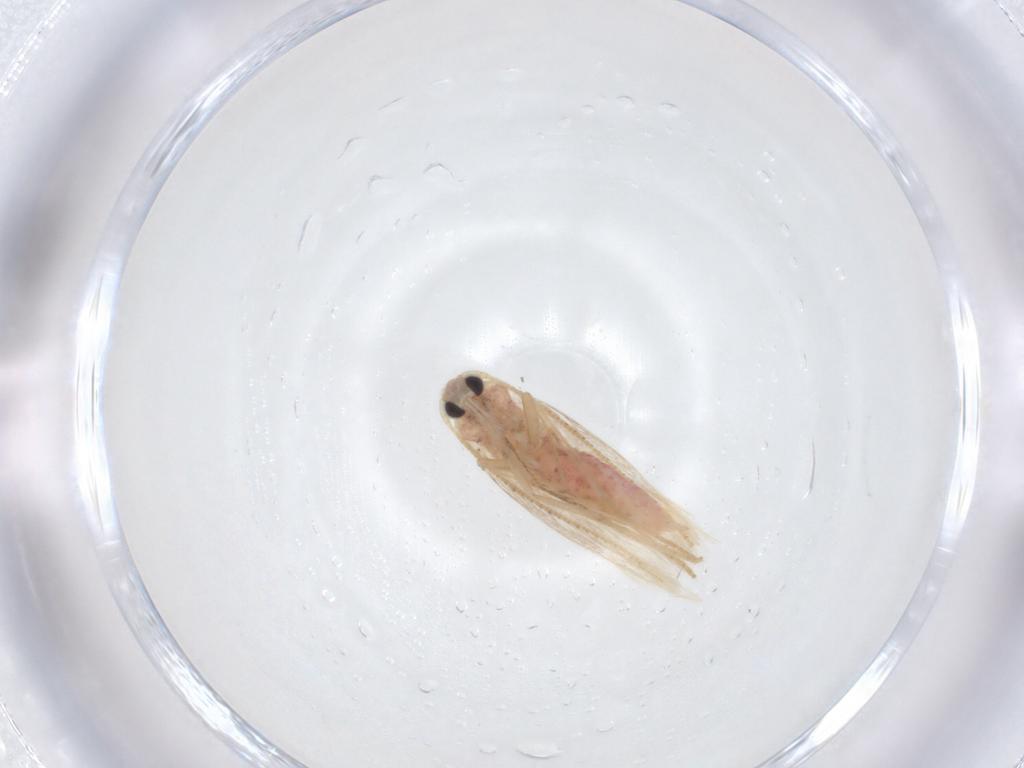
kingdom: Animalia
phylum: Arthropoda
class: Insecta
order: Lepidoptera
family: Bedelliidae
